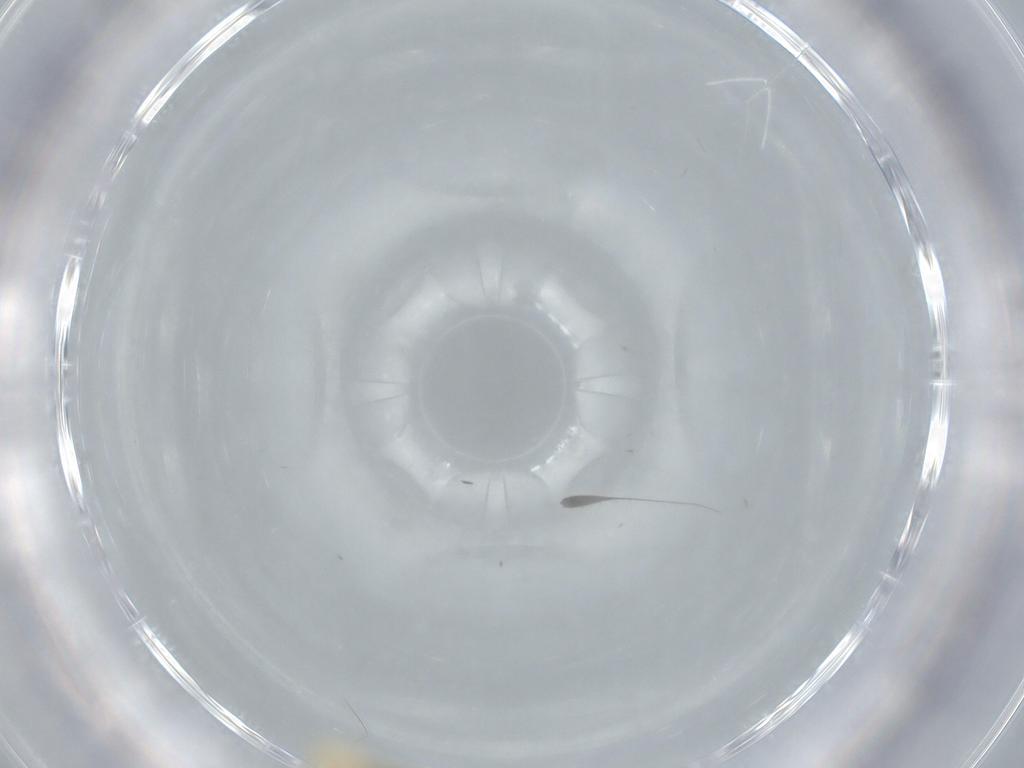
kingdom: Animalia
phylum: Arthropoda
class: Insecta
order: Diptera
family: Cecidomyiidae
